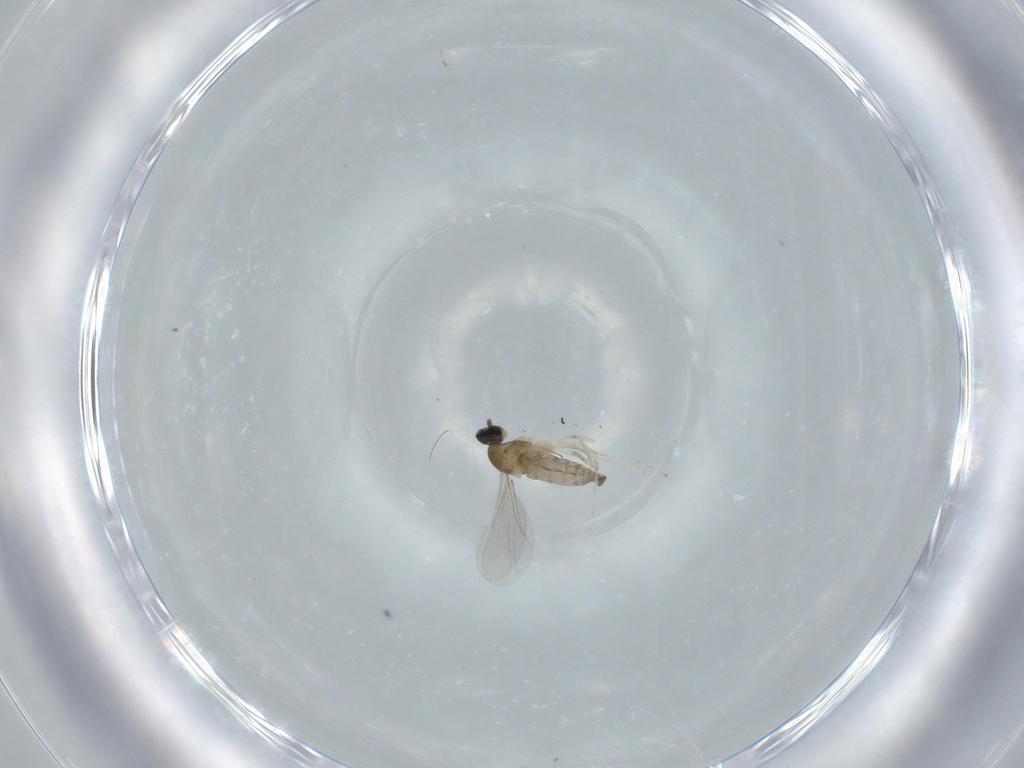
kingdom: Animalia
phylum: Arthropoda
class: Insecta
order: Diptera
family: Cecidomyiidae
